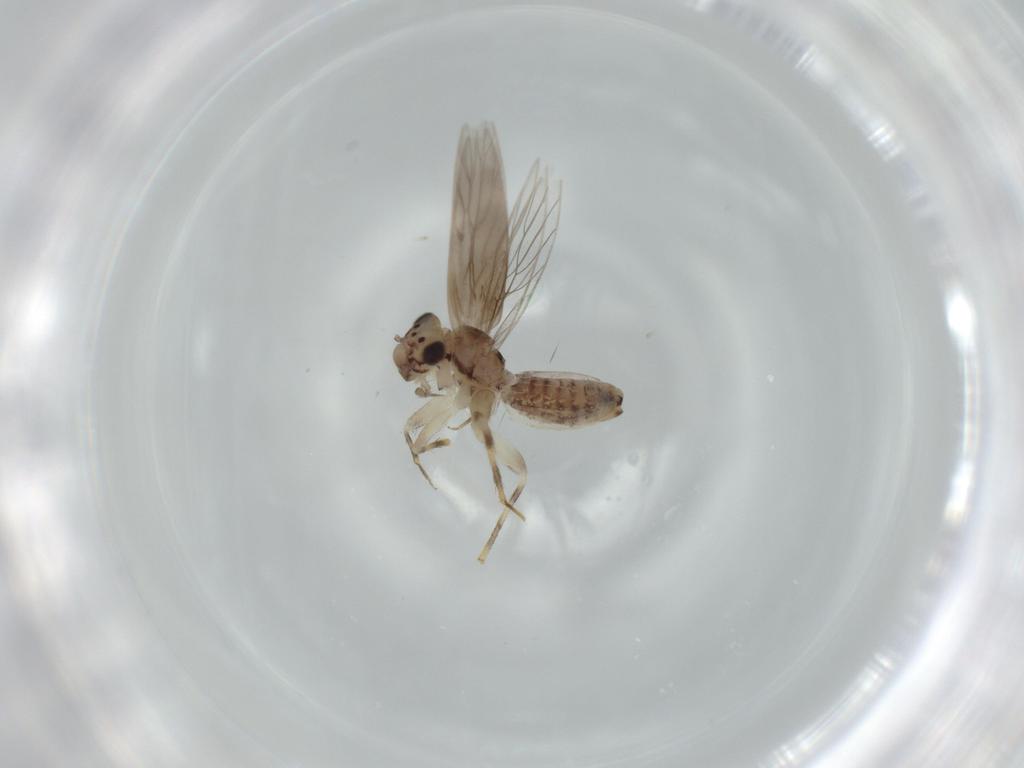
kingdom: Animalia
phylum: Arthropoda
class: Insecta
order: Psocodea
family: Lepidopsocidae
